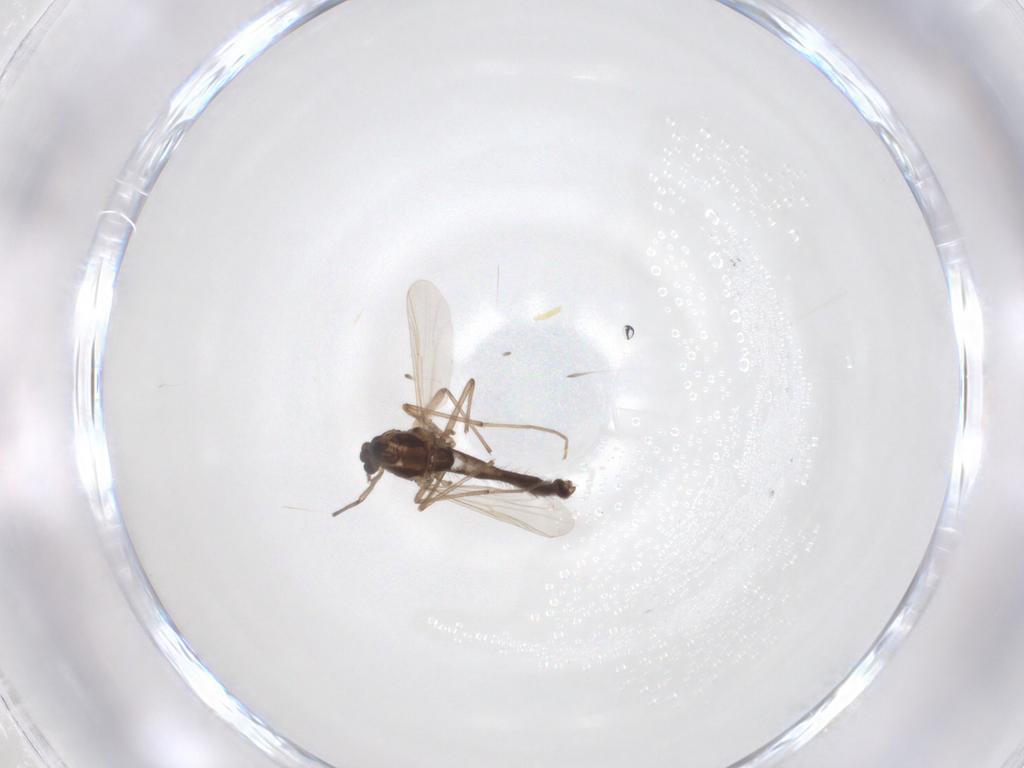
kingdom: Animalia
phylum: Arthropoda
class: Insecta
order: Diptera
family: Chironomidae
